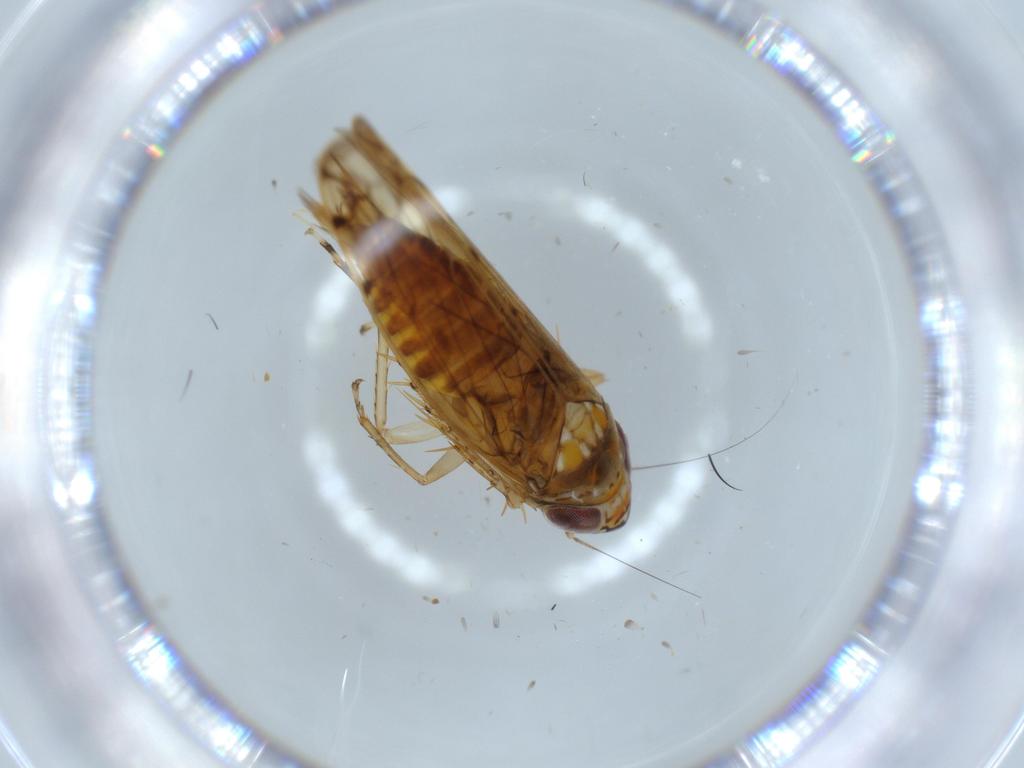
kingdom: Animalia
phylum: Arthropoda
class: Insecta
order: Hemiptera
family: Cicadellidae
